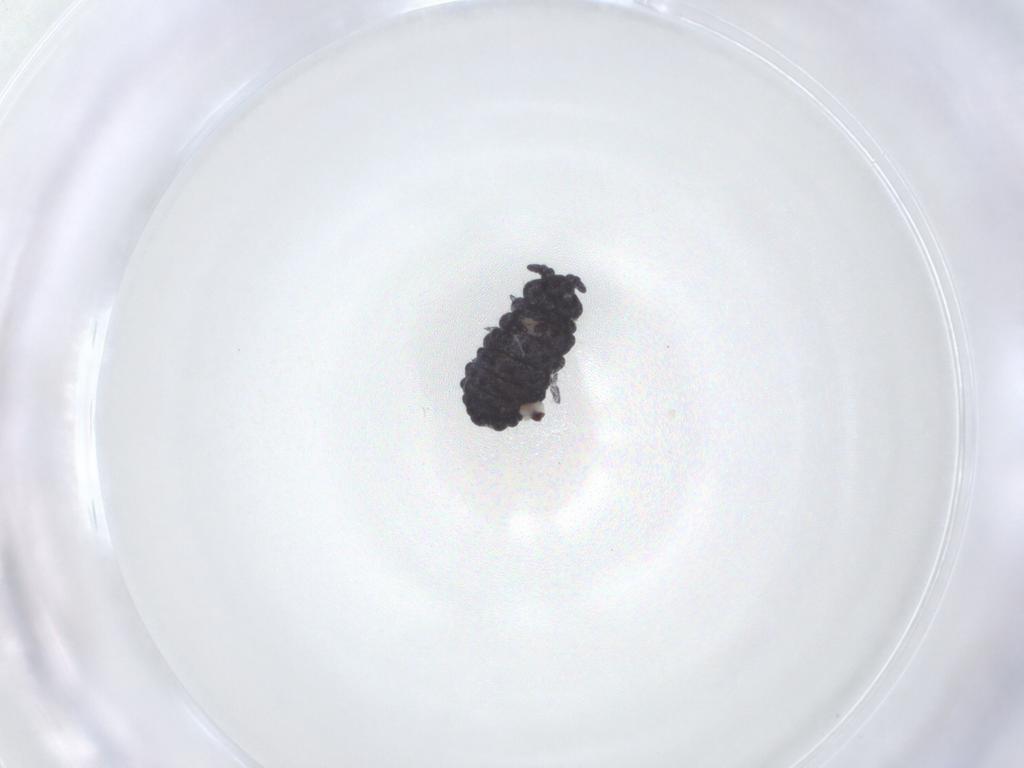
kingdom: Animalia
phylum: Arthropoda
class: Collembola
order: Poduromorpha
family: Neanuridae
